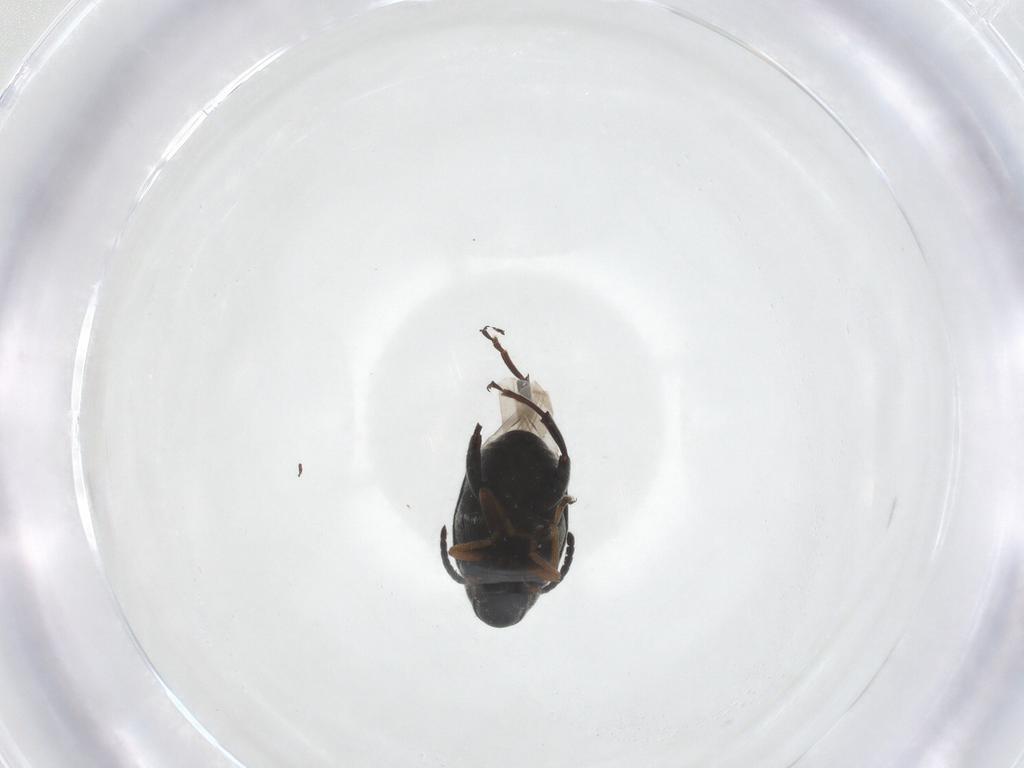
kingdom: Animalia
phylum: Arthropoda
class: Insecta
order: Coleoptera
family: Chrysomelidae
